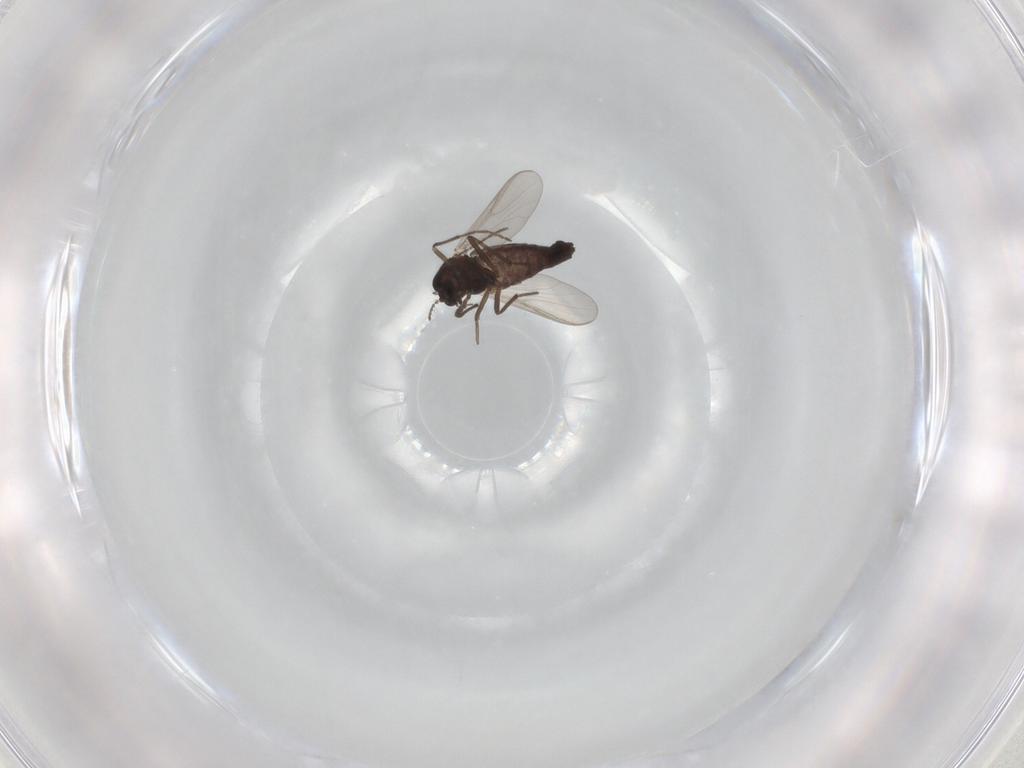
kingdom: Animalia
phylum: Arthropoda
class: Insecta
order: Diptera
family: Chironomidae
